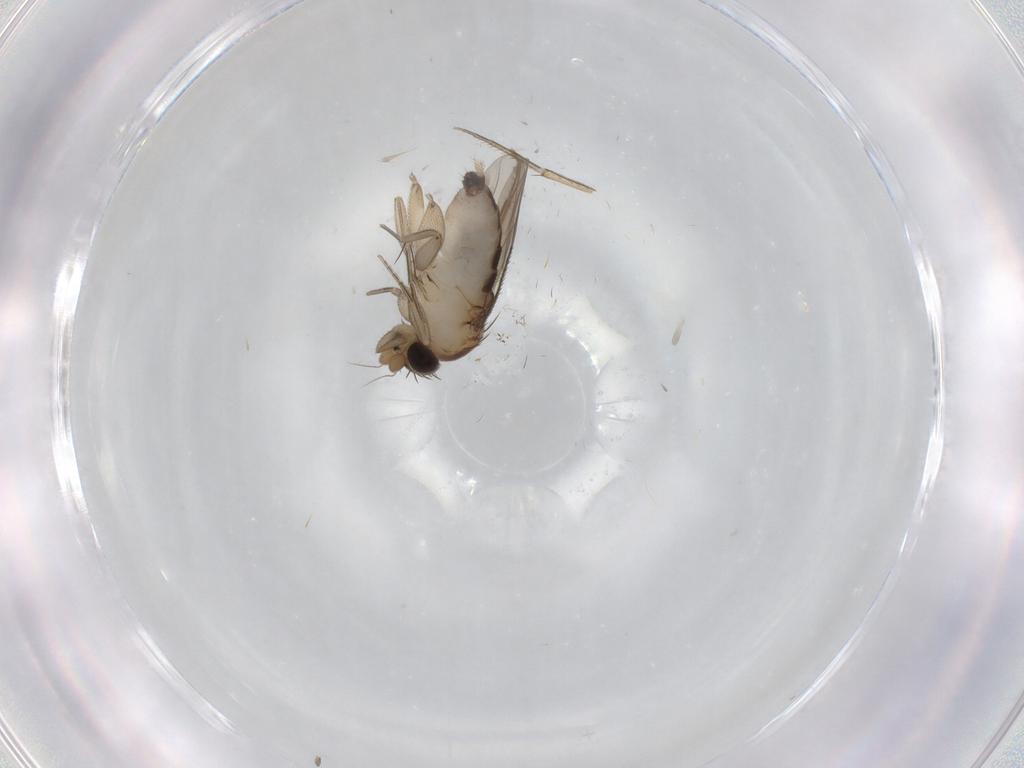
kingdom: Animalia
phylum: Arthropoda
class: Insecta
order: Diptera
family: Phoridae
